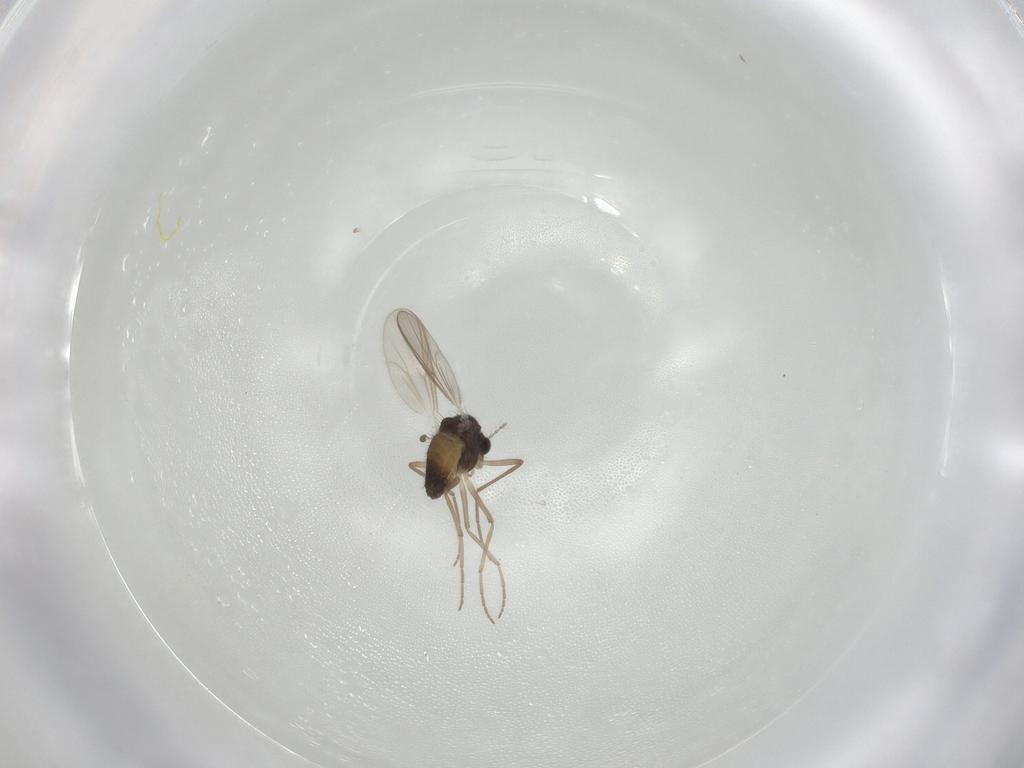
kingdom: Animalia
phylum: Arthropoda
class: Insecta
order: Diptera
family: Chironomidae
